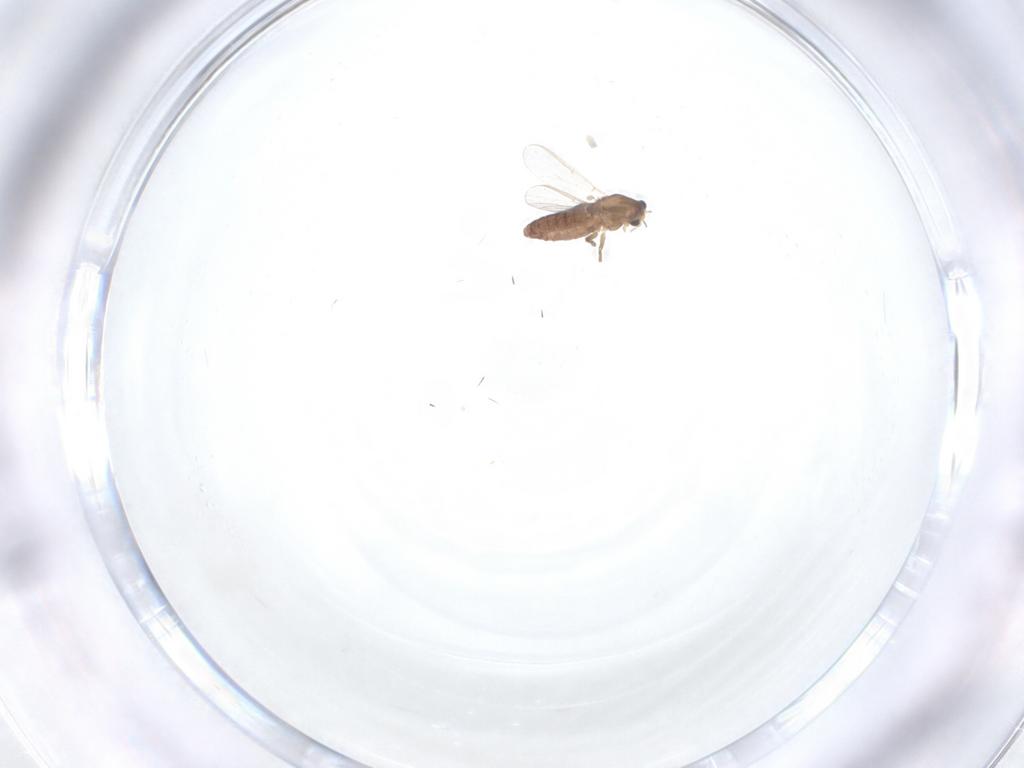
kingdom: Animalia
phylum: Arthropoda
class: Insecta
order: Diptera
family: Chironomidae
